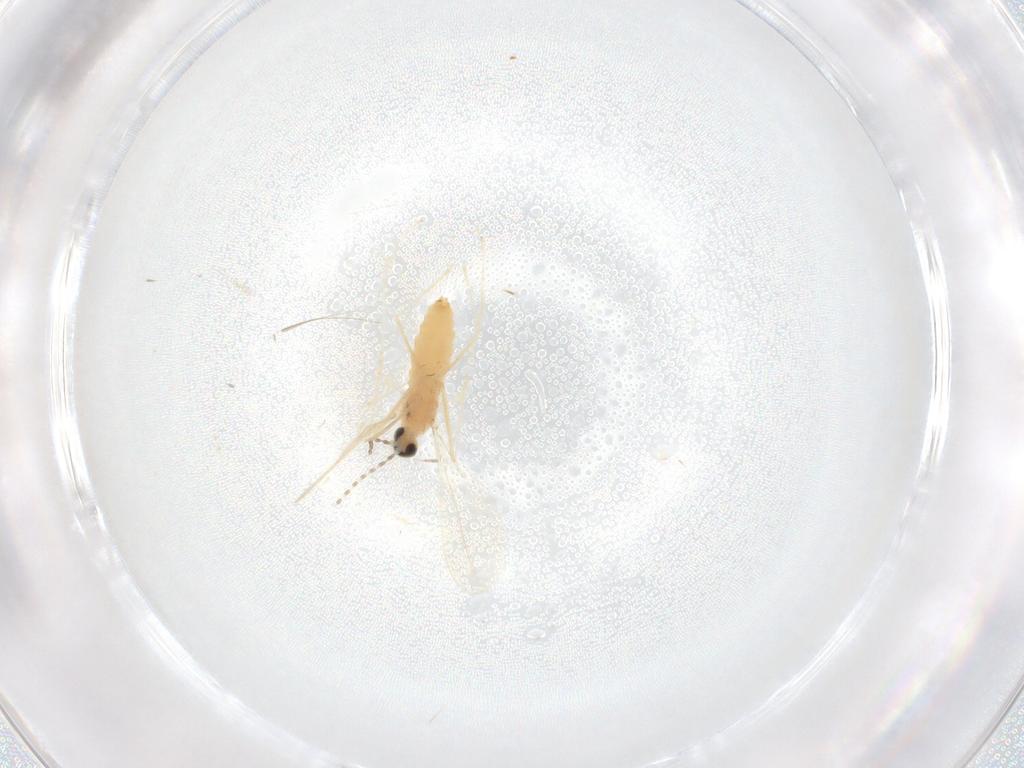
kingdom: Animalia
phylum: Arthropoda
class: Insecta
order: Diptera
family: Cecidomyiidae
